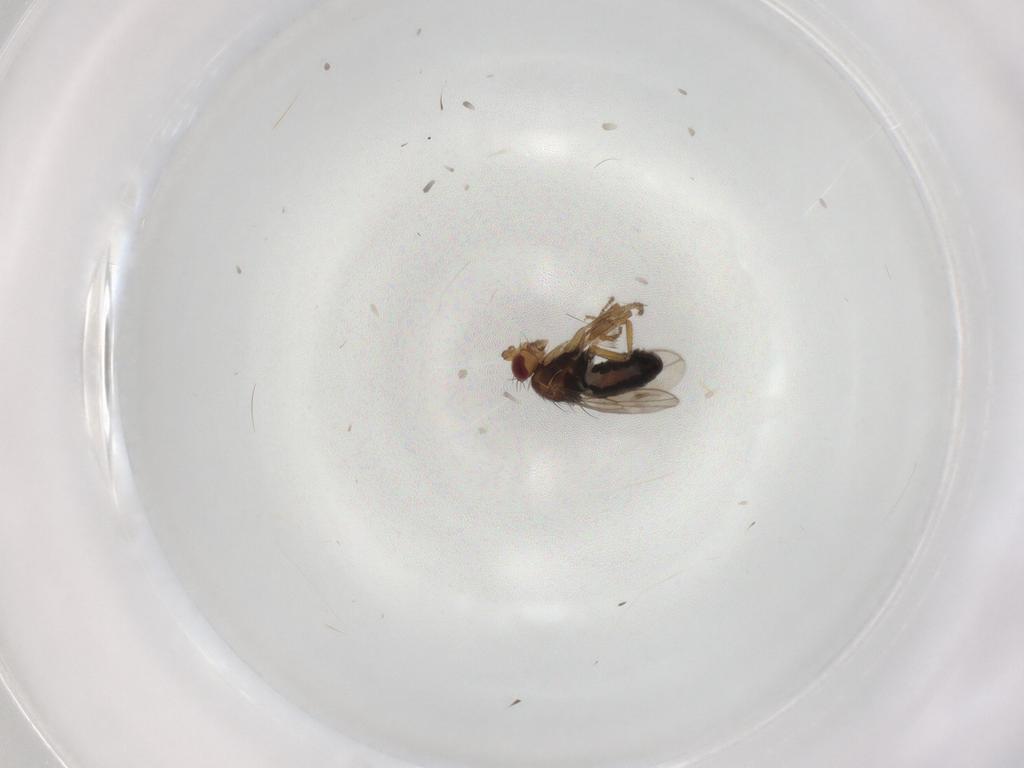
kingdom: Animalia
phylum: Arthropoda
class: Insecta
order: Diptera
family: Sphaeroceridae
